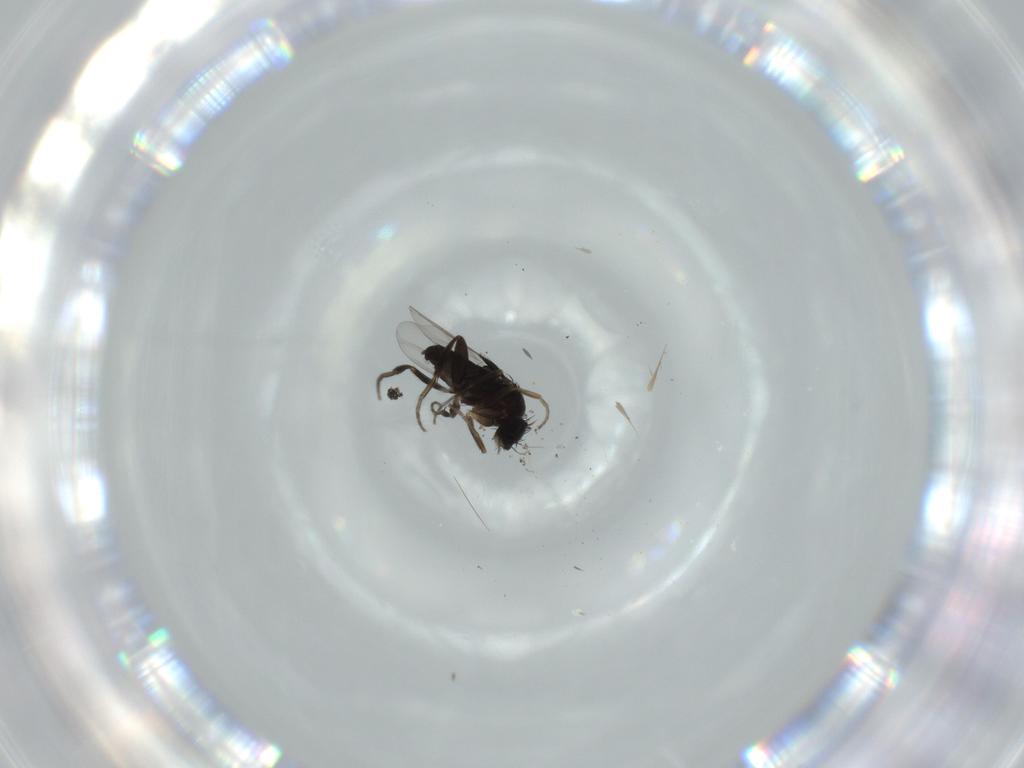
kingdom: Animalia
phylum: Arthropoda
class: Insecta
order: Diptera
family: Phoridae
